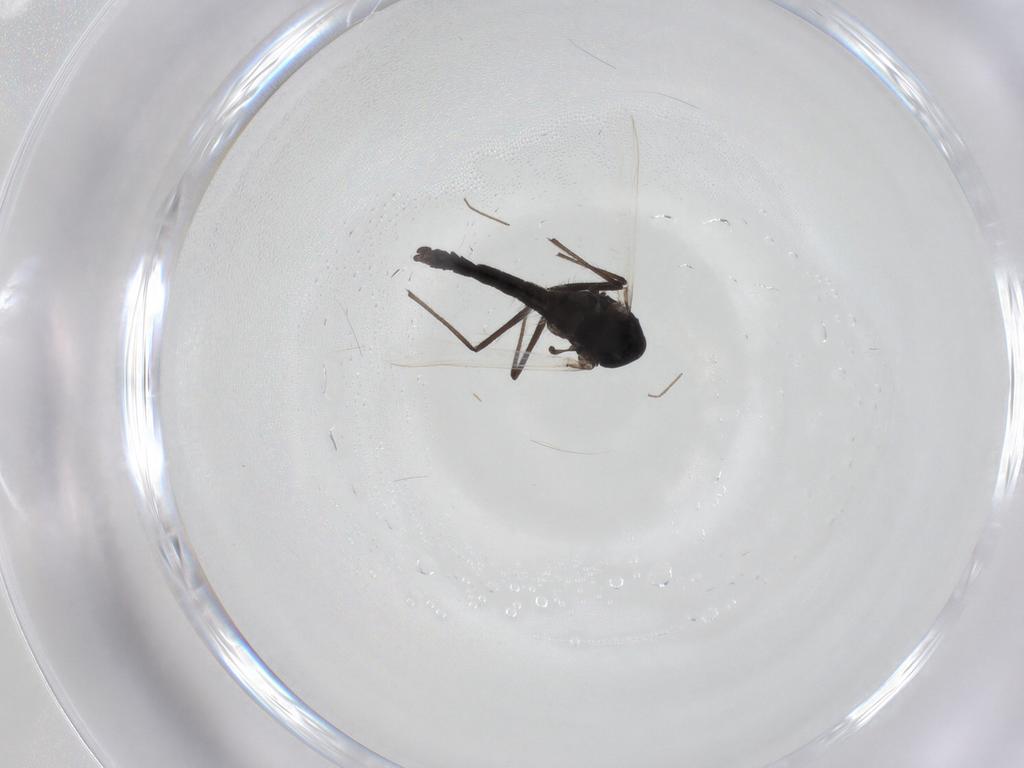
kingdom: Animalia
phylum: Arthropoda
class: Insecta
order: Diptera
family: Chironomidae
